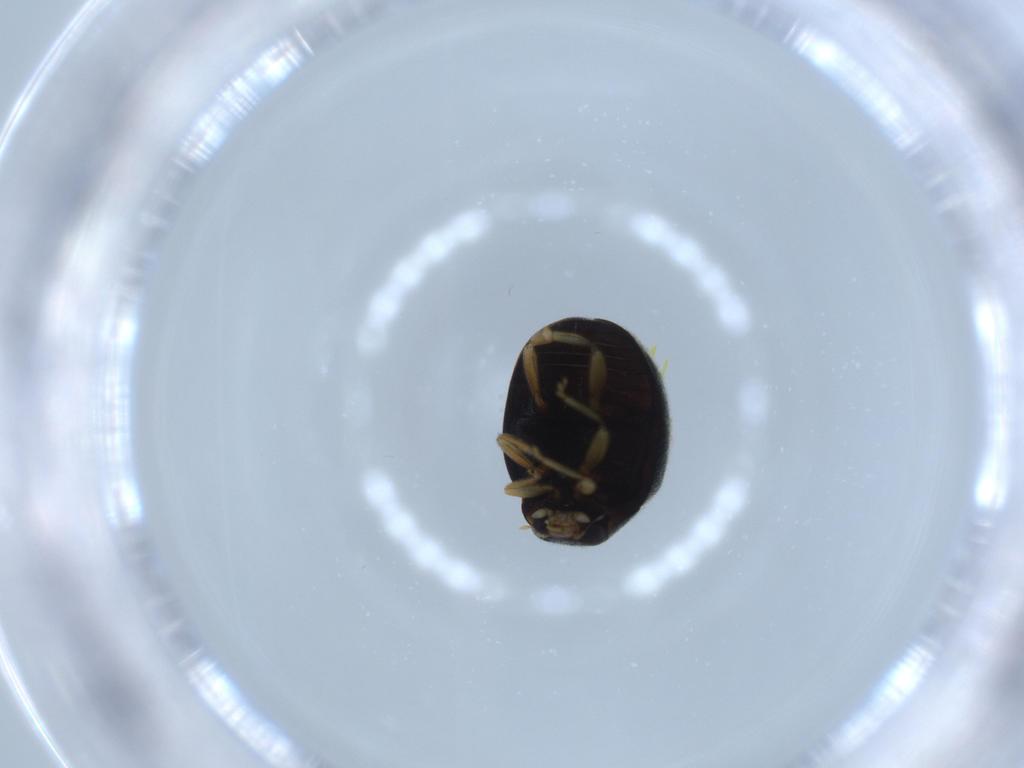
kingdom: Animalia
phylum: Arthropoda
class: Insecta
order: Coleoptera
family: Coccinellidae
